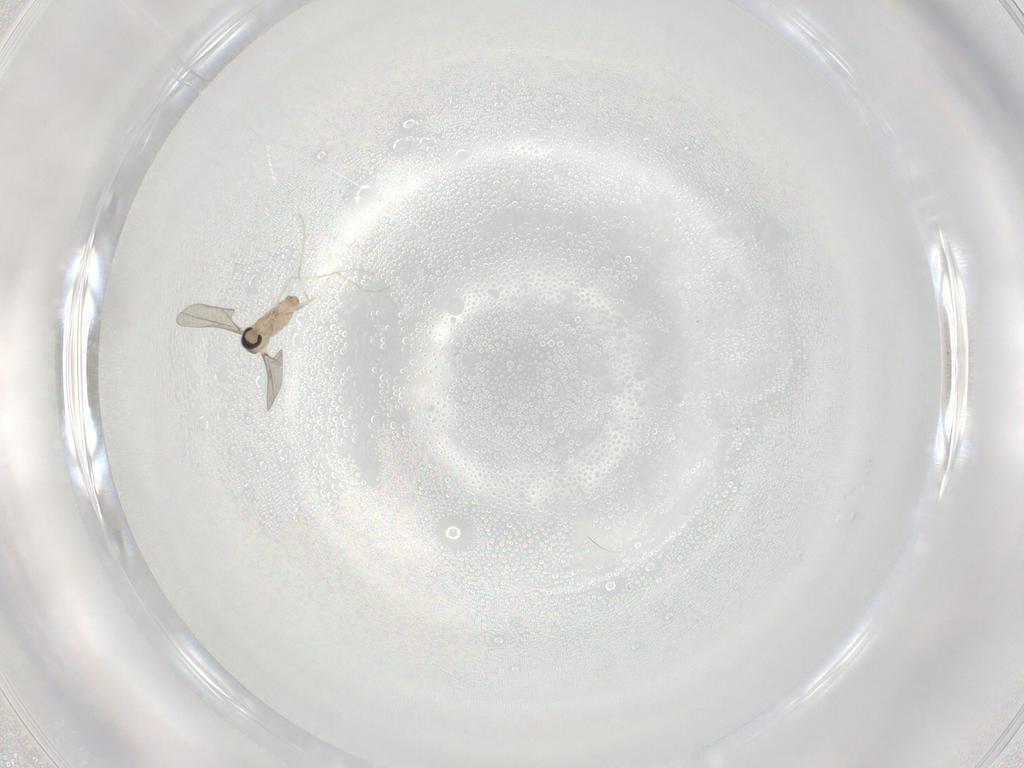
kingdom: Animalia
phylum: Arthropoda
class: Insecta
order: Diptera
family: Cecidomyiidae
